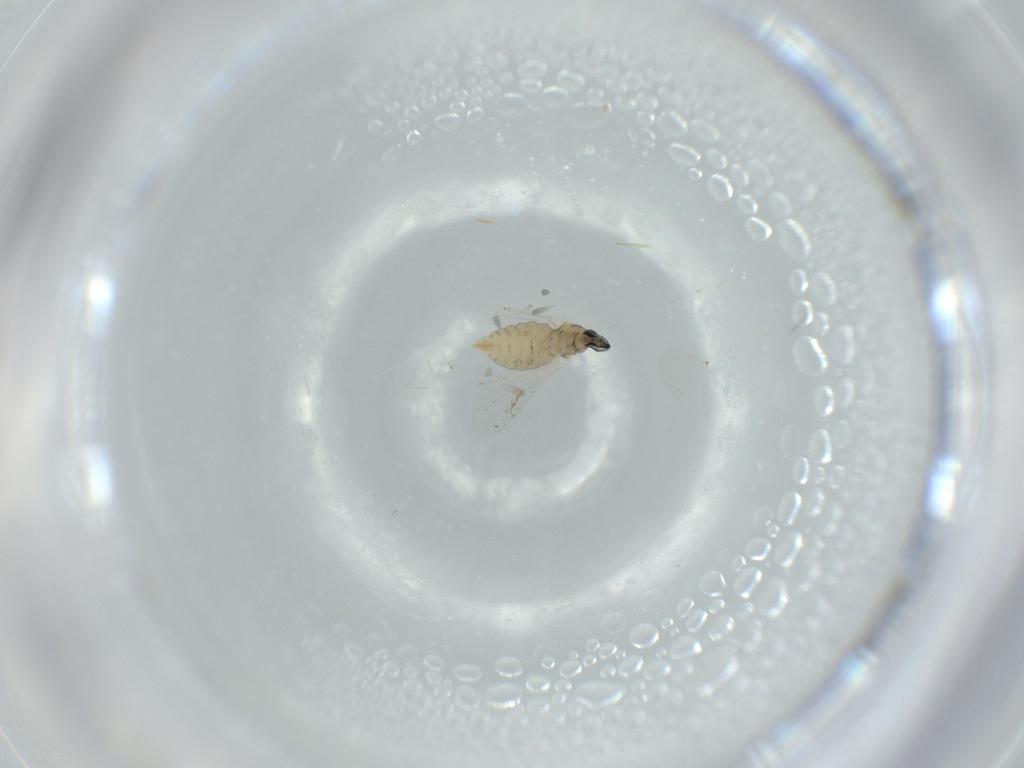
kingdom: Animalia
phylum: Arthropoda
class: Insecta
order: Diptera
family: Cecidomyiidae
